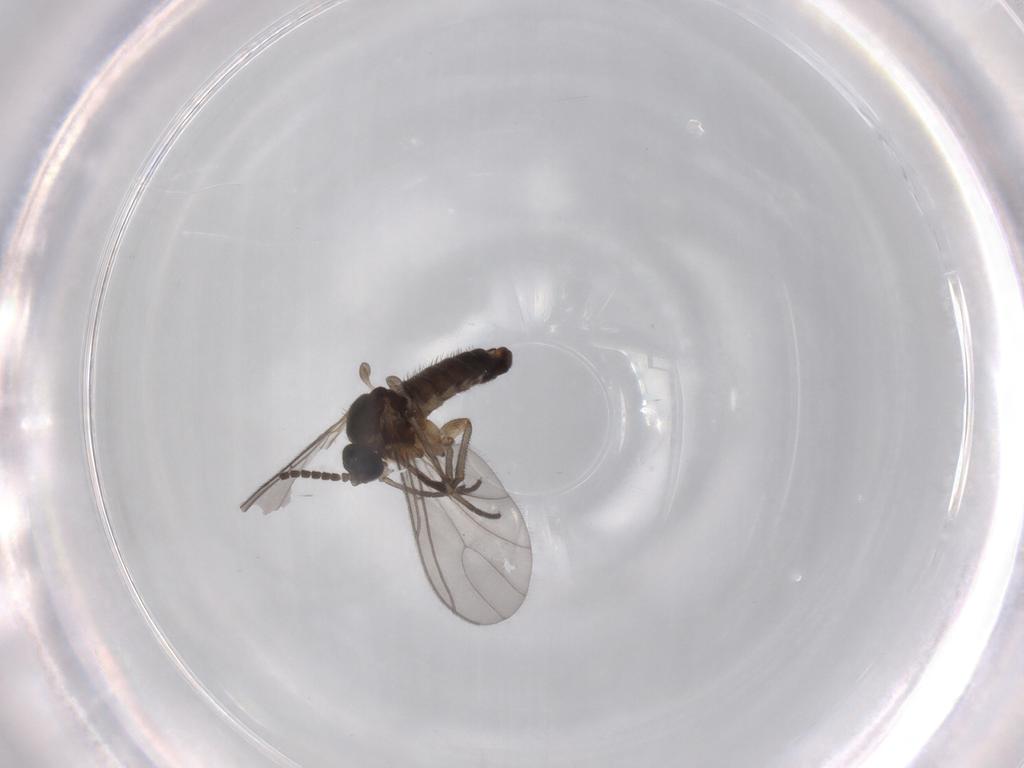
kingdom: Animalia
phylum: Arthropoda
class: Insecta
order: Diptera
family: Sciaridae
